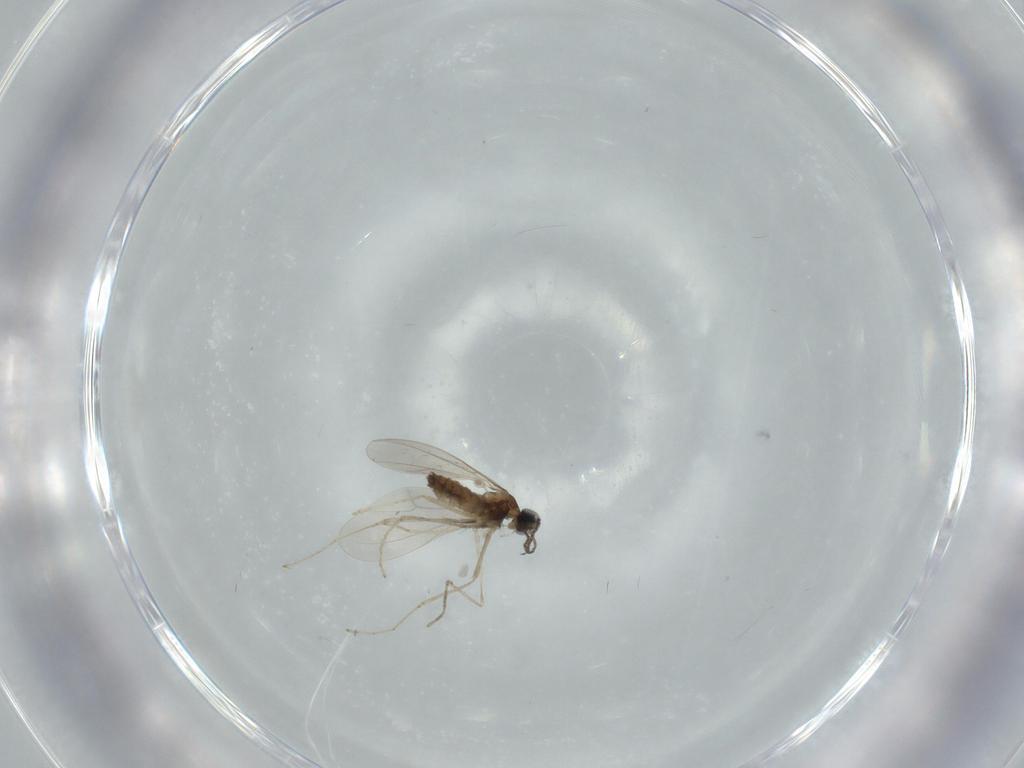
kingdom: Animalia
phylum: Arthropoda
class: Insecta
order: Diptera
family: Cecidomyiidae
